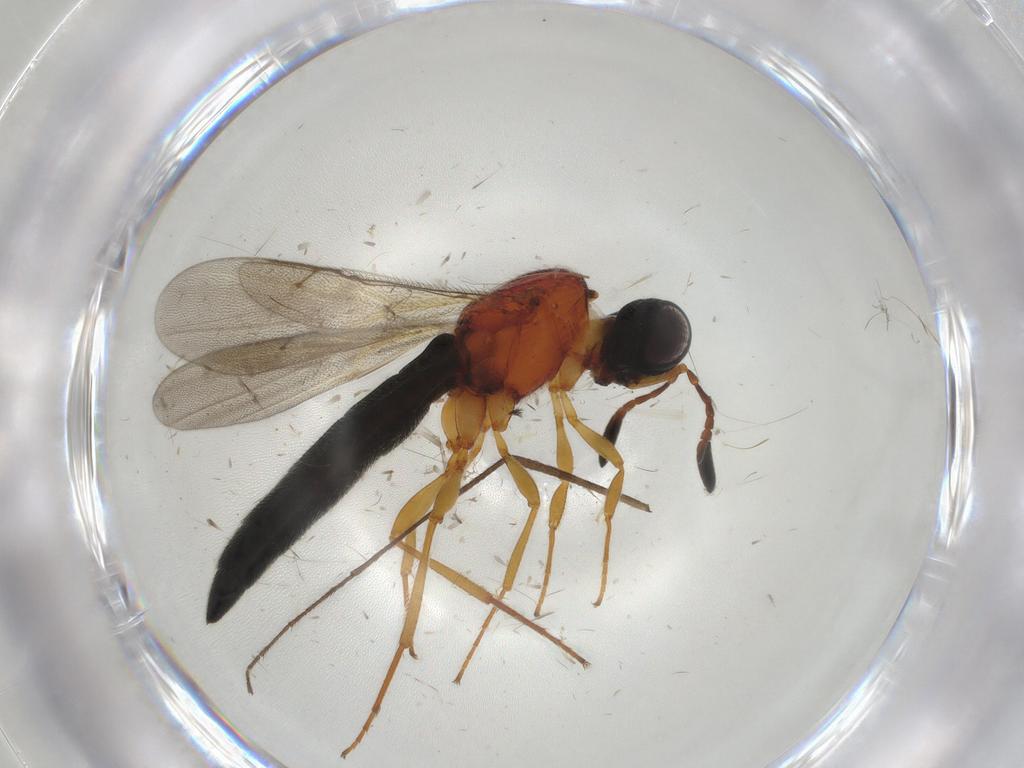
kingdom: Animalia
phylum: Arthropoda
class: Insecta
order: Hymenoptera
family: Scelionidae
